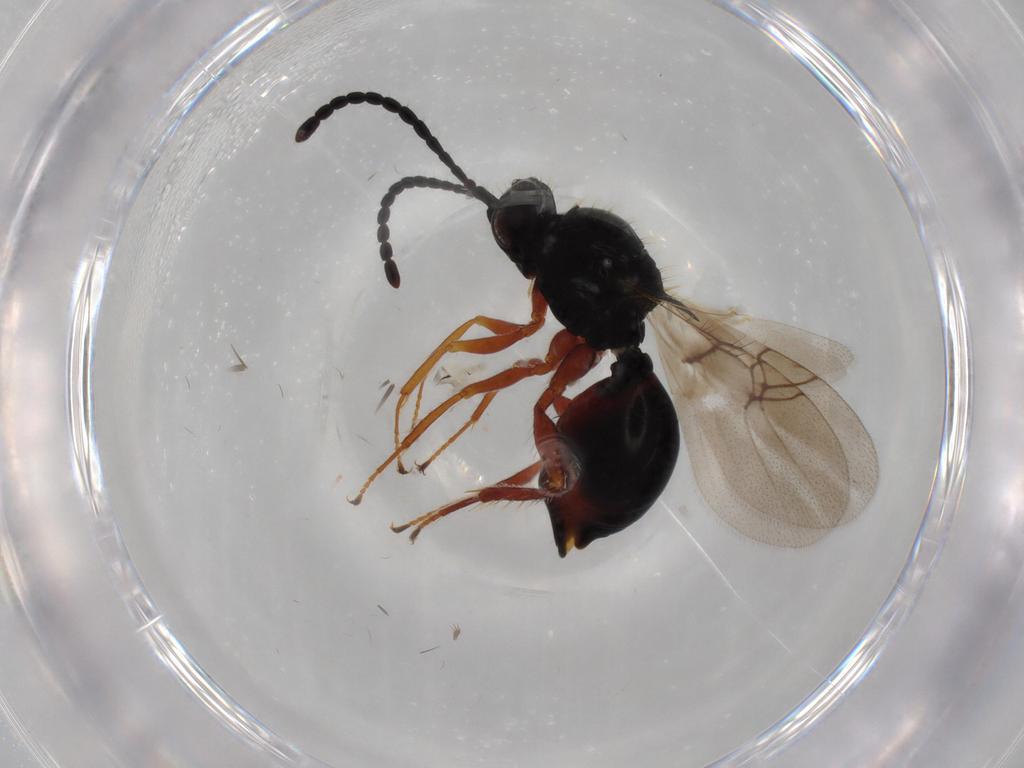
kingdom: Animalia
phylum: Arthropoda
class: Insecta
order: Hymenoptera
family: Figitidae
